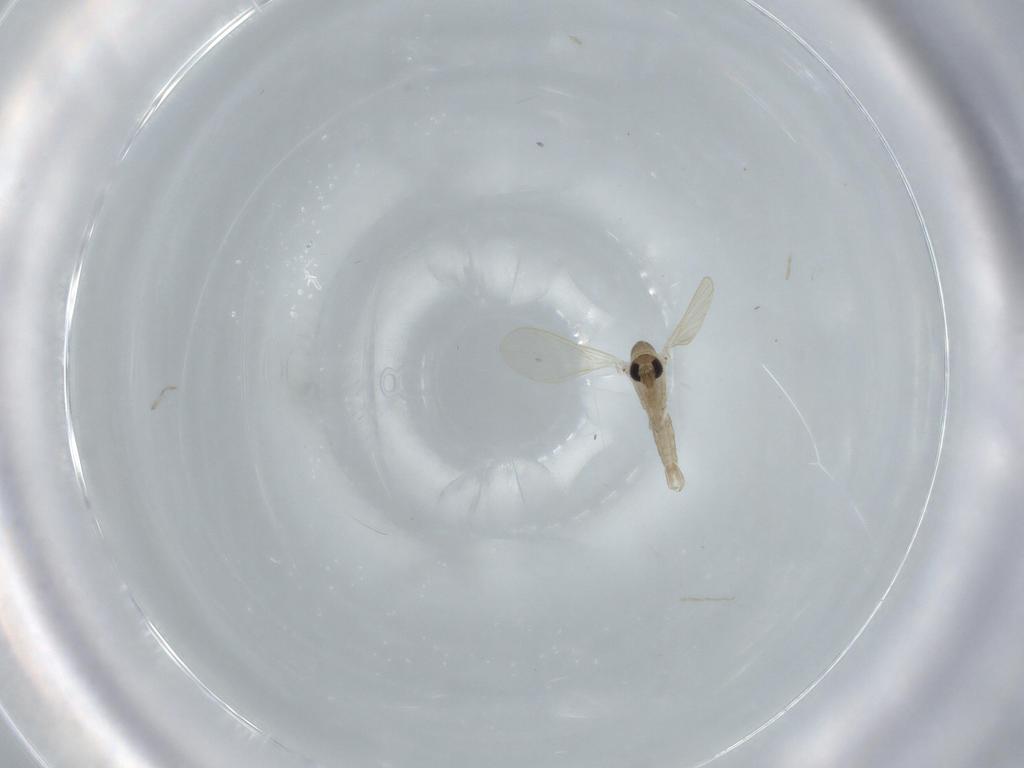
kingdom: Animalia
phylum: Arthropoda
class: Insecta
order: Diptera
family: Psychodidae
